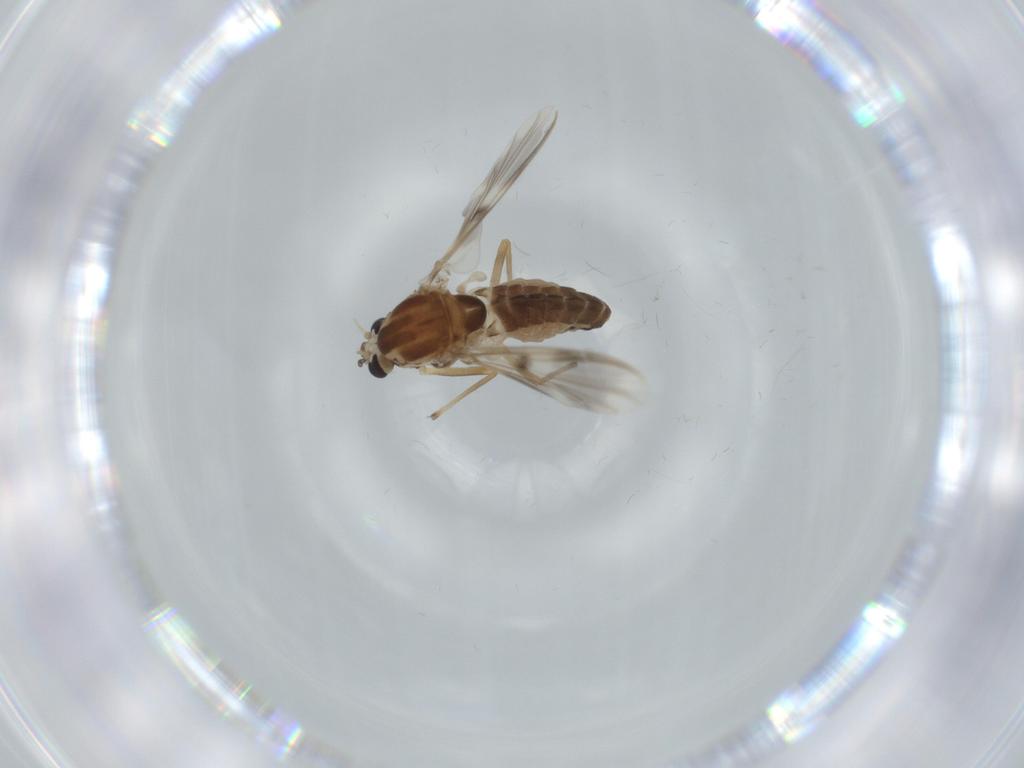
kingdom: Animalia
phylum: Arthropoda
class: Insecta
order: Diptera
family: Chironomidae
